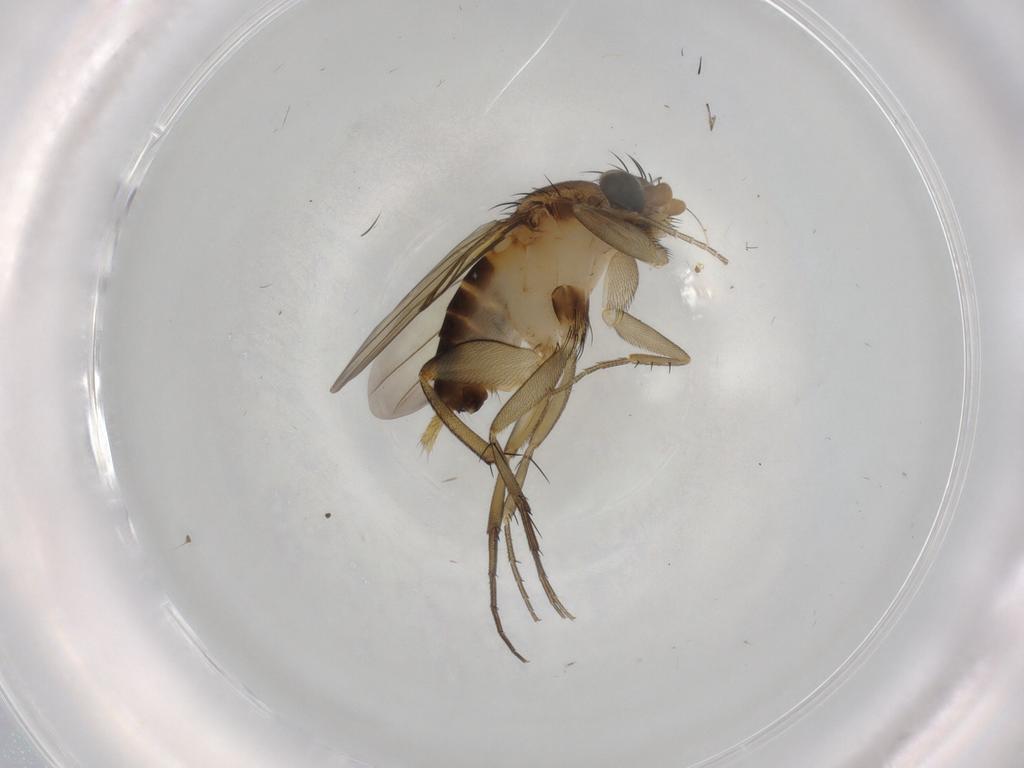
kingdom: Animalia
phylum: Arthropoda
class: Insecta
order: Diptera
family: Phoridae
